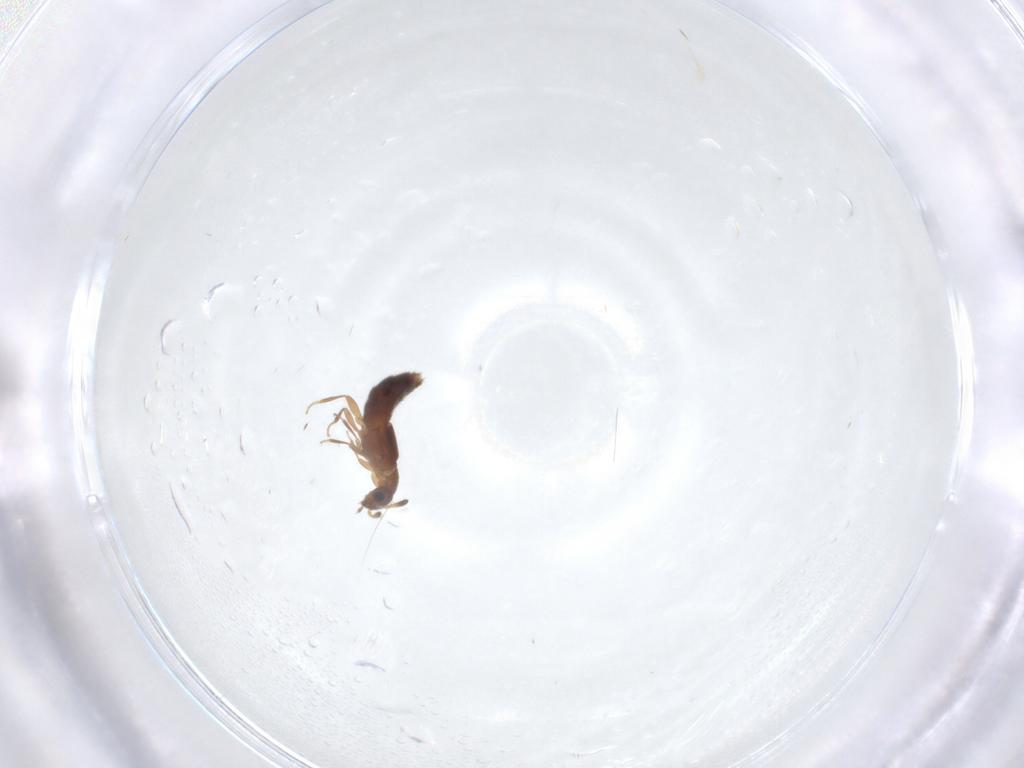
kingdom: Animalia
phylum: Arthropoda
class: Insecta
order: Coleoptera
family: Staphylinidae
